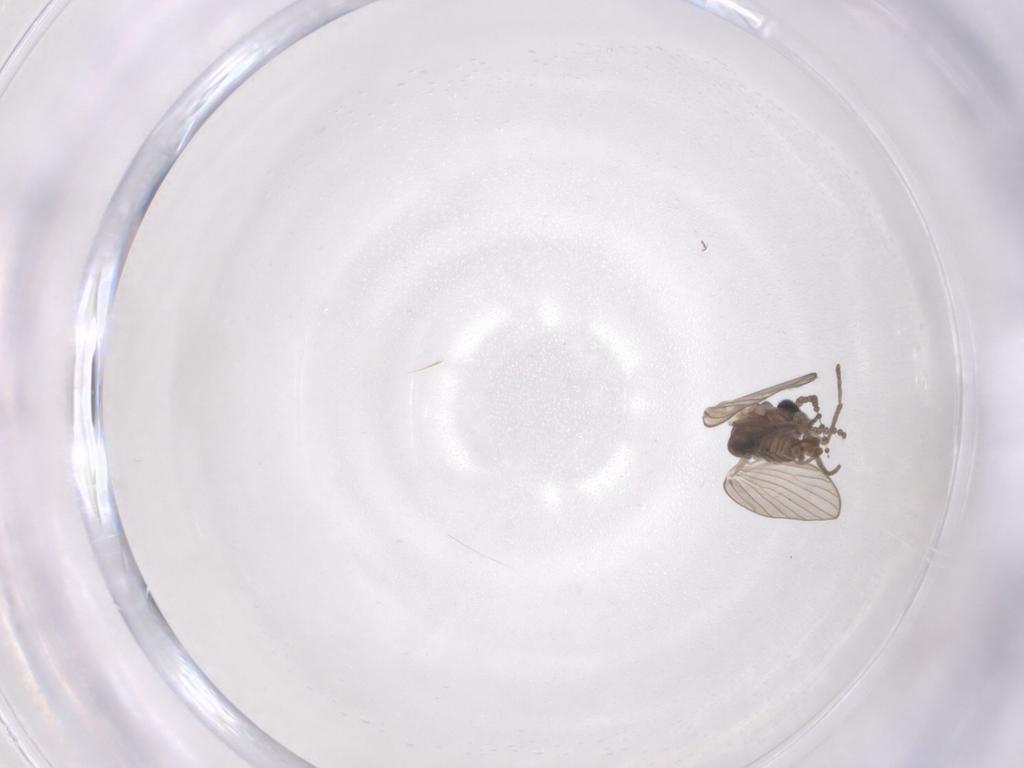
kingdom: Animalia
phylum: Arthropoda
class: Insecta
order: Diptera
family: Psychodidae
